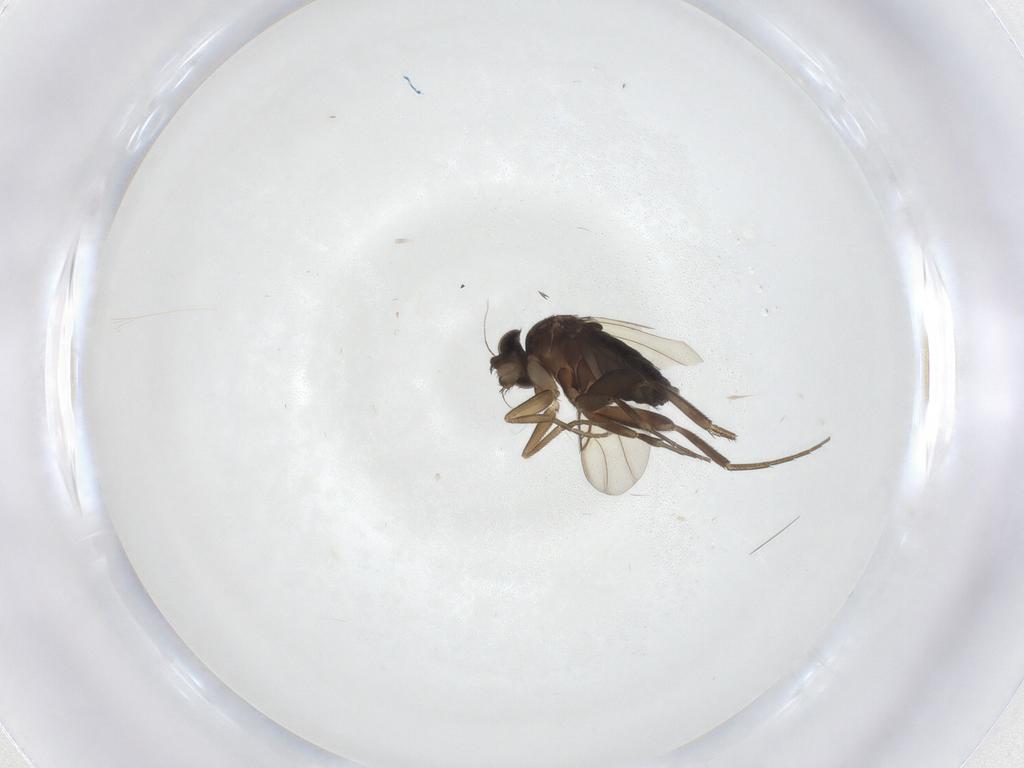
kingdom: Animalia
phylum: Arthropoda
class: Insecta
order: Diptera
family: Phoridae
